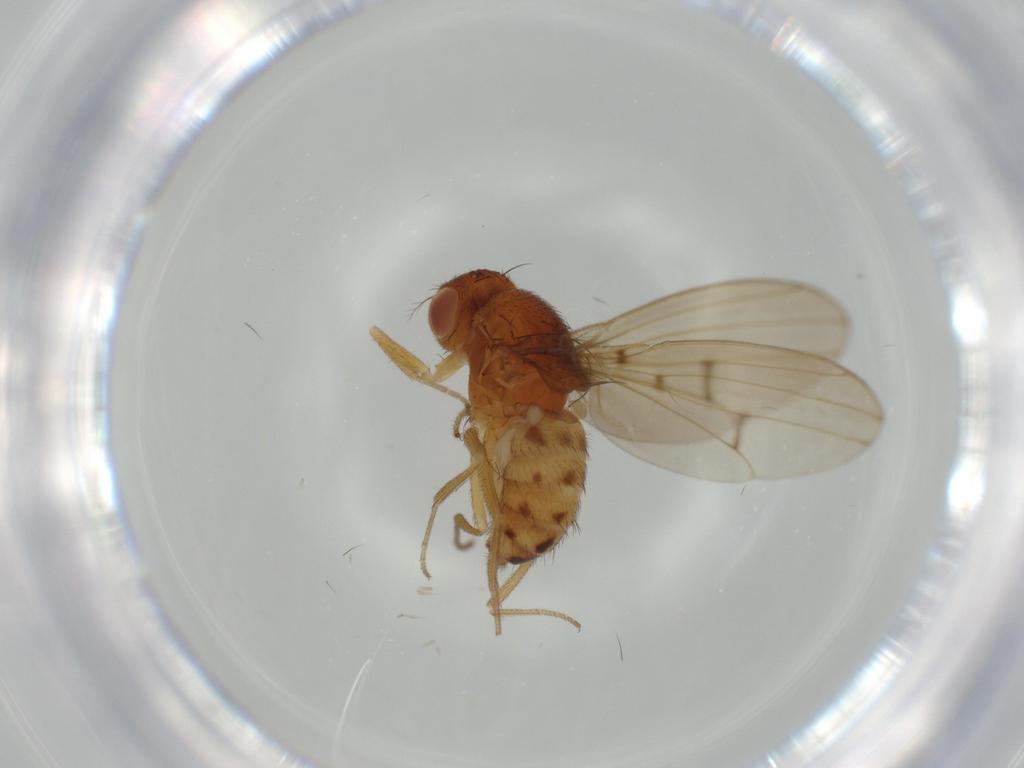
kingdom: Animalia
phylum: Arthropoda
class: Insecta
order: Diptera
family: Drosophilidae
